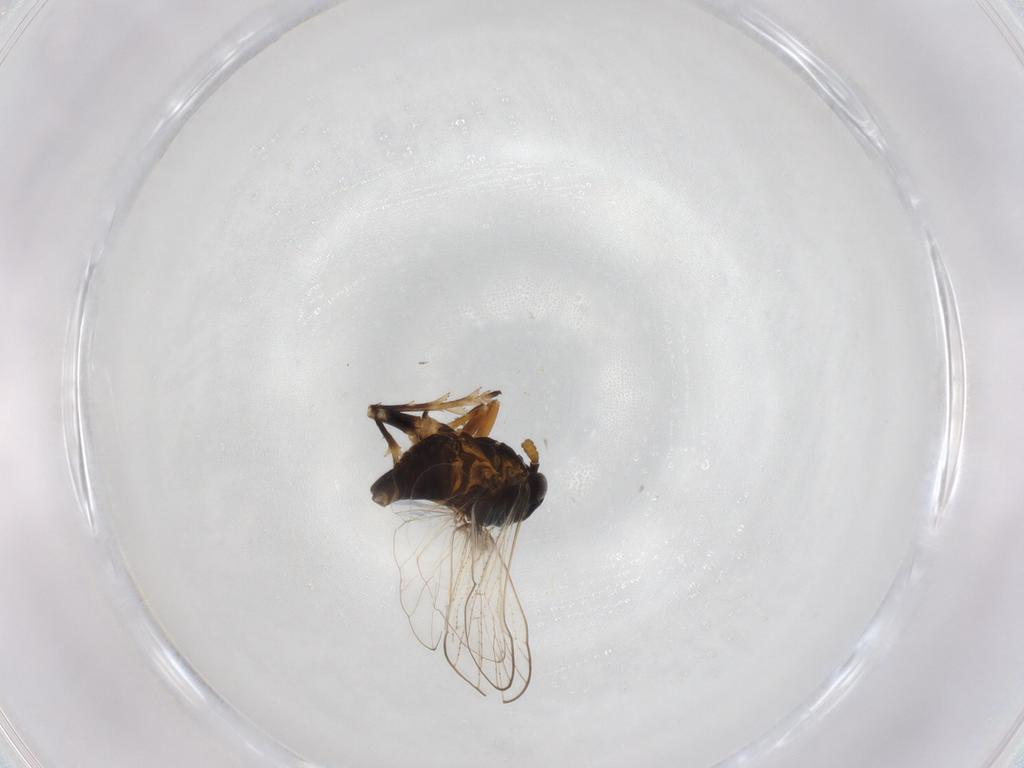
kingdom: Animalia
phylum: Arthropoda
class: Insecta
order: Hemiptera
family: Delphacidae
